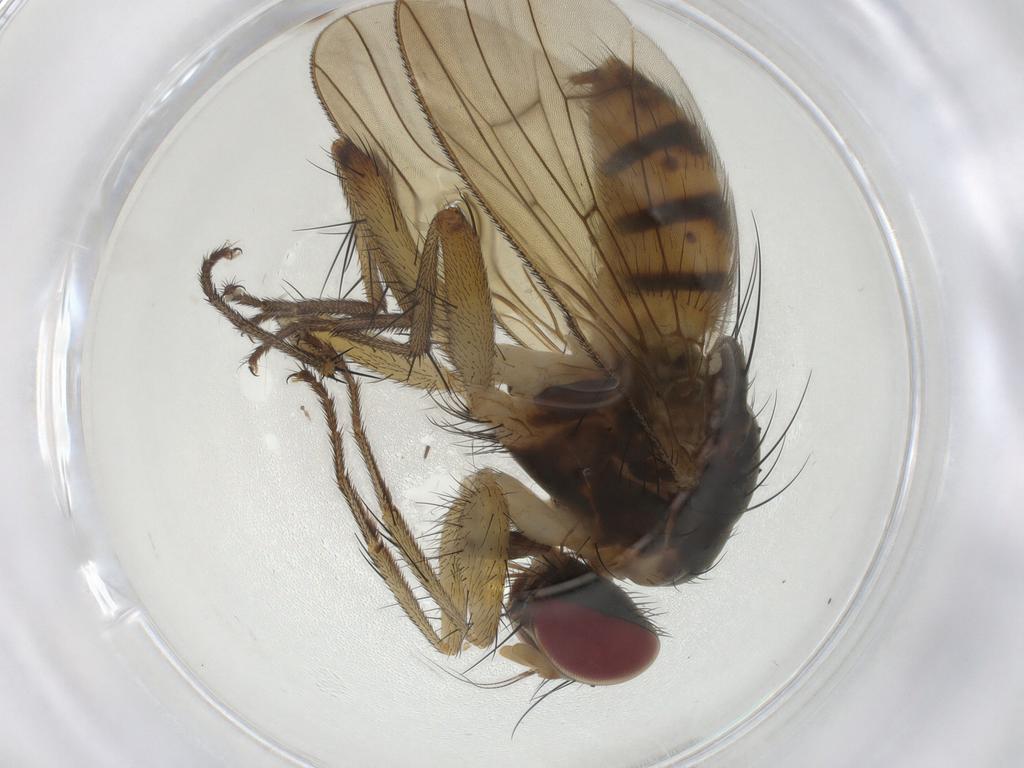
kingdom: Animalia
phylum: Arthropoda
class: Insecta
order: Diptera
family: Muscidae
